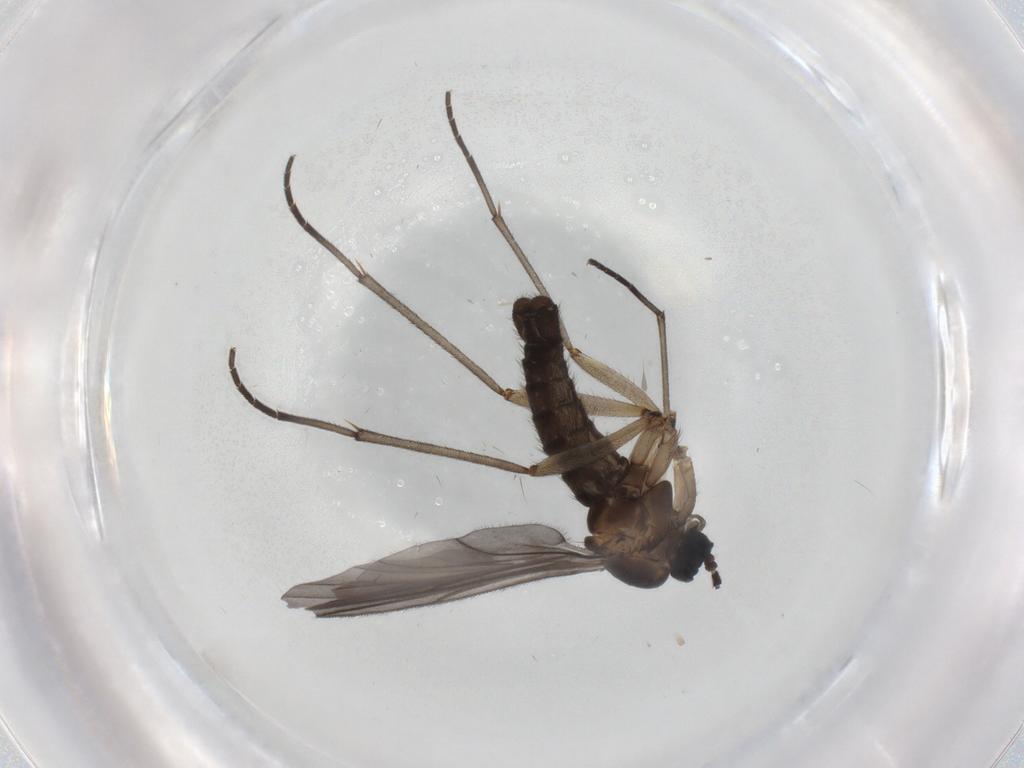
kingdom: Animalia
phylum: Arthropoda
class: Insecta
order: Diptera
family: Sciaridae
